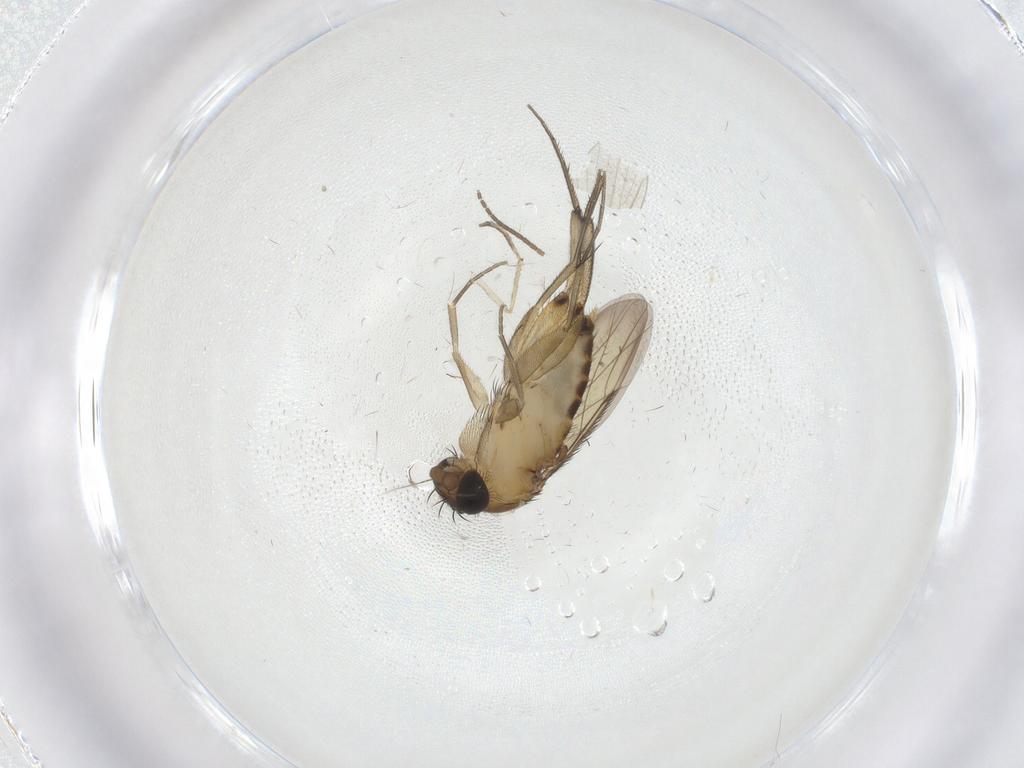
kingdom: Animalia
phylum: Arthropoda
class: Insecta
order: Diptera
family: Phoridae
